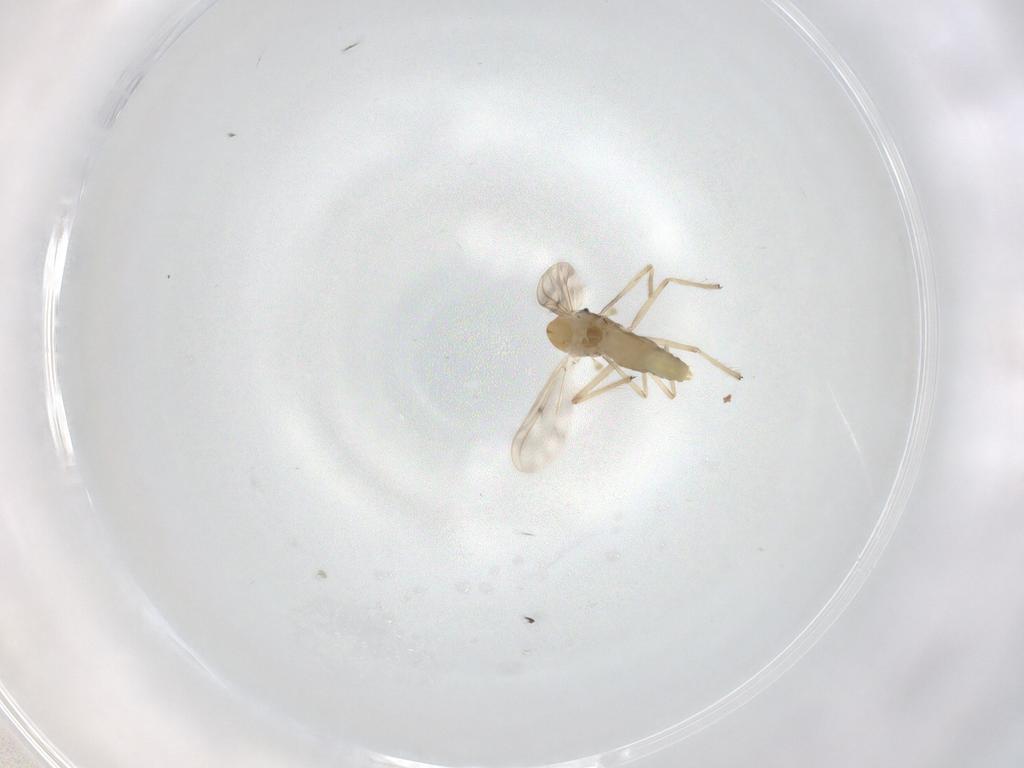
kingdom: Animalia
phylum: Arthropoda
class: Insecta
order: Diptera
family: Chironomidae
